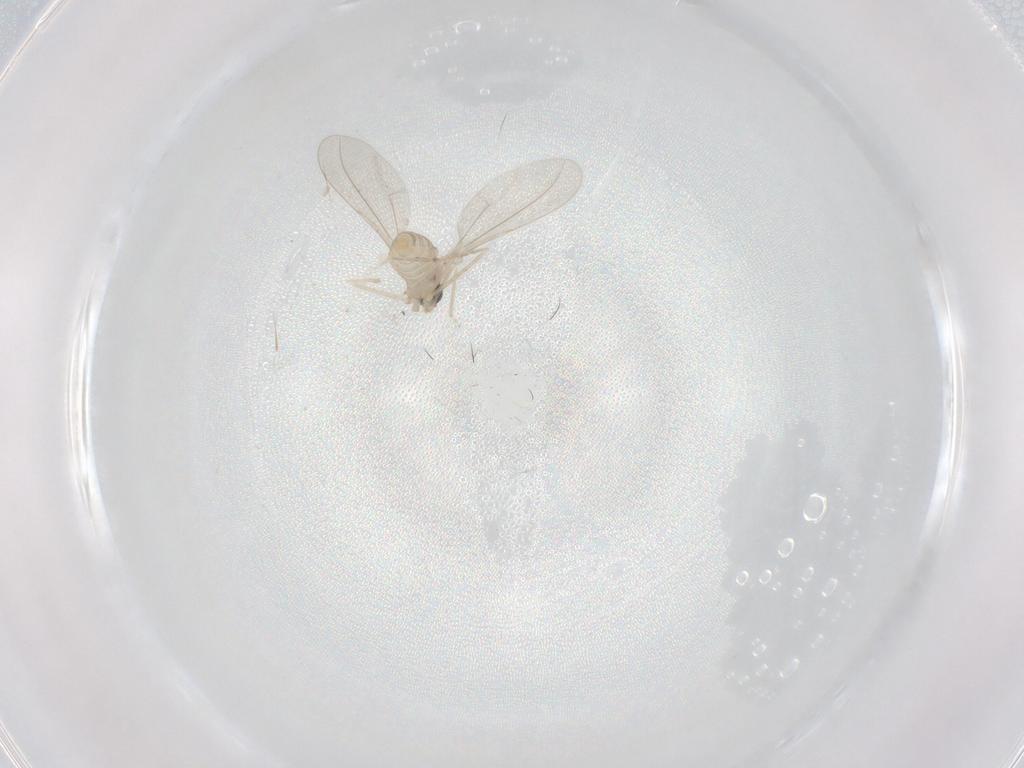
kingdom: Animalia
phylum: Arthropoda
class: Insecta
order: Diptera
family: Cecidomyiidae
